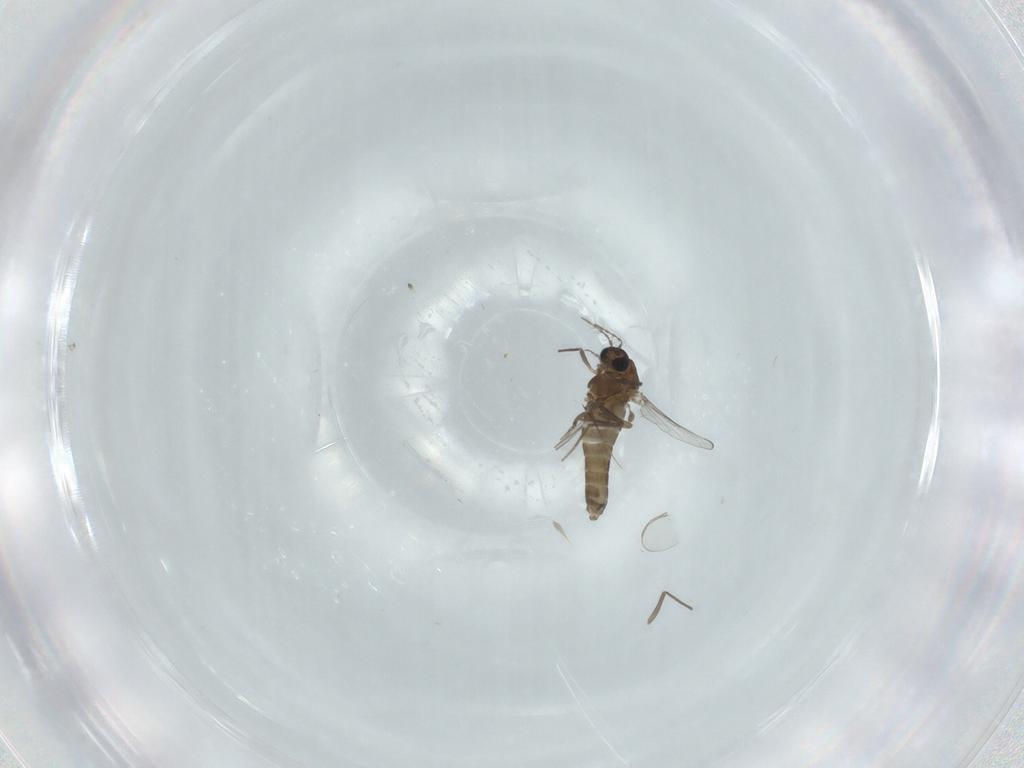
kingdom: Animalia
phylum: Arthropoda
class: Insecta
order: Diptera
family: Chironomidae
